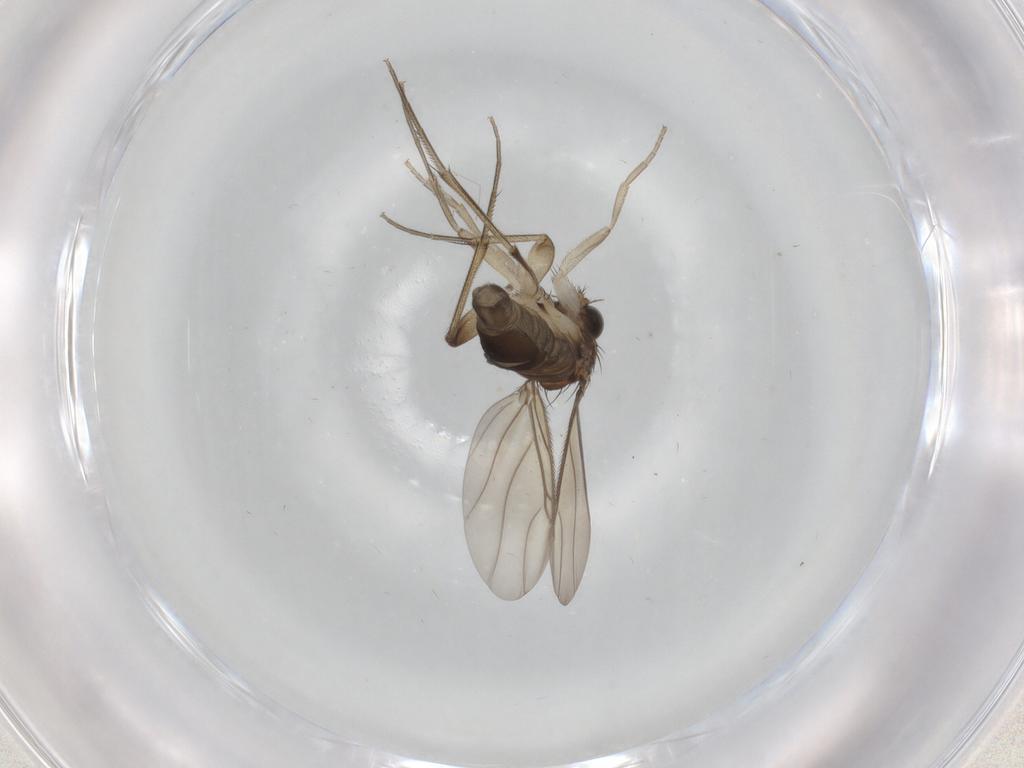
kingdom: Animalia
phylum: Arthropoda
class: Insecta
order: Diptera
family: Phoridae
